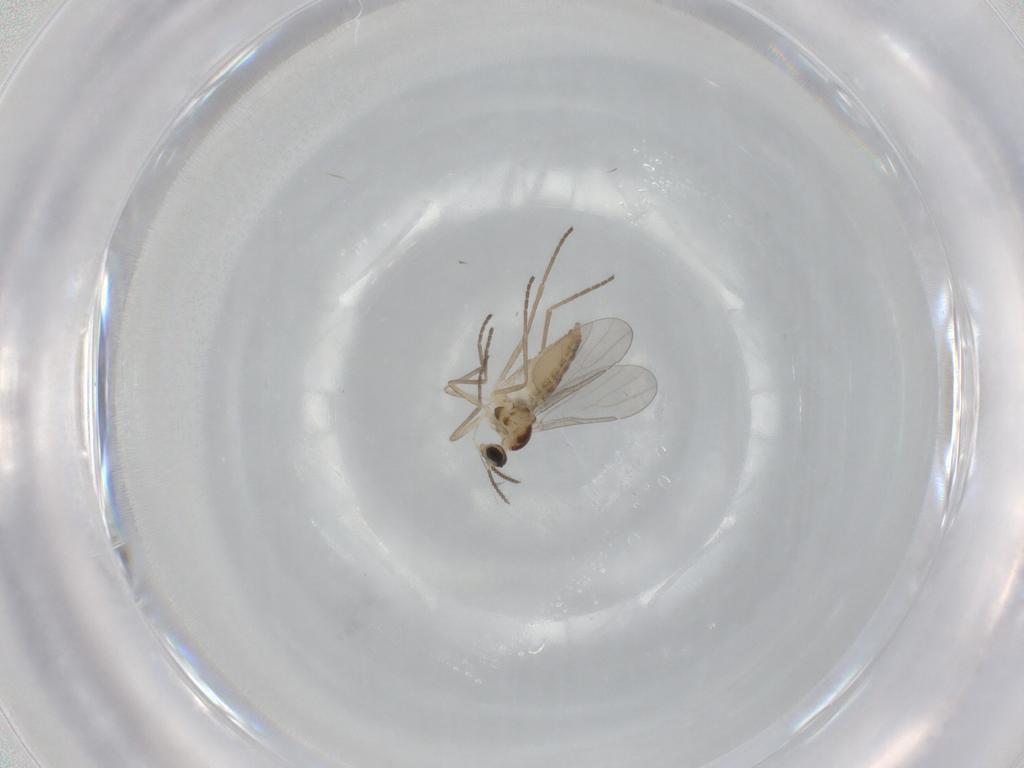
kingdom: Animalia
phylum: Arthropoda
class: Insecta
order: Diptera
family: Cecidomyiidae
